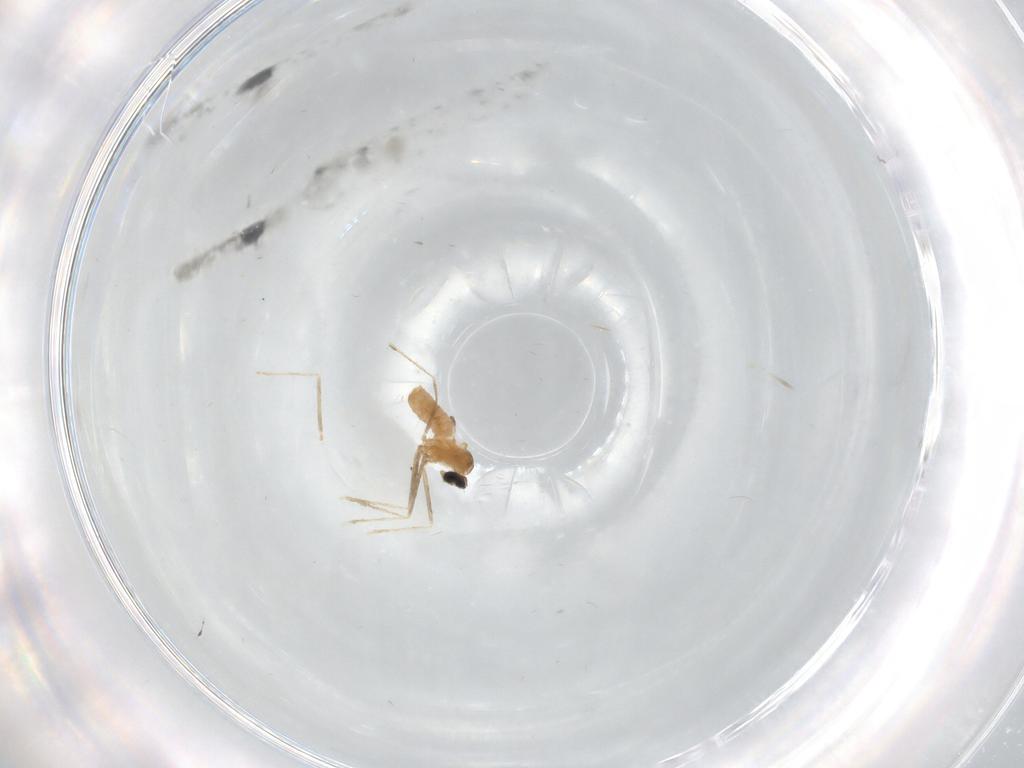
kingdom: Animalia
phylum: Arthropoda
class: Insecta
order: Diptera
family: Cecidomyiidae
